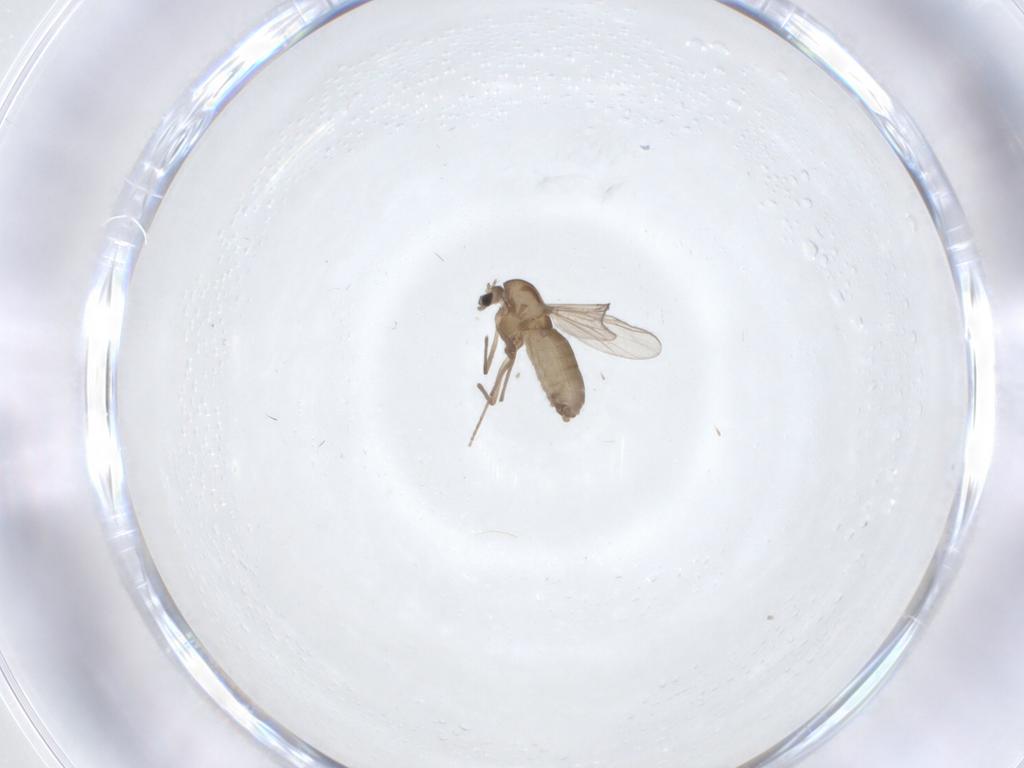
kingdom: Animalia
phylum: Arthropoda
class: Insecta
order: Diptera
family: Chironomidae
